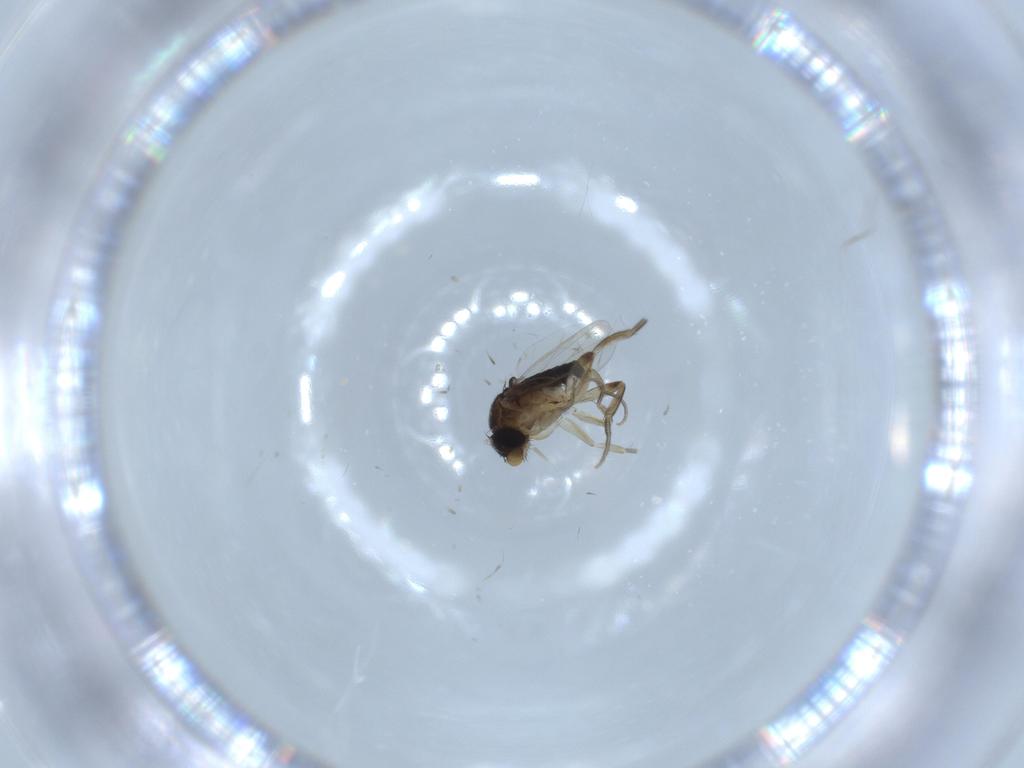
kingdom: Animalia
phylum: Arthropoda
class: Insecta
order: Diptera
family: Phoridae
